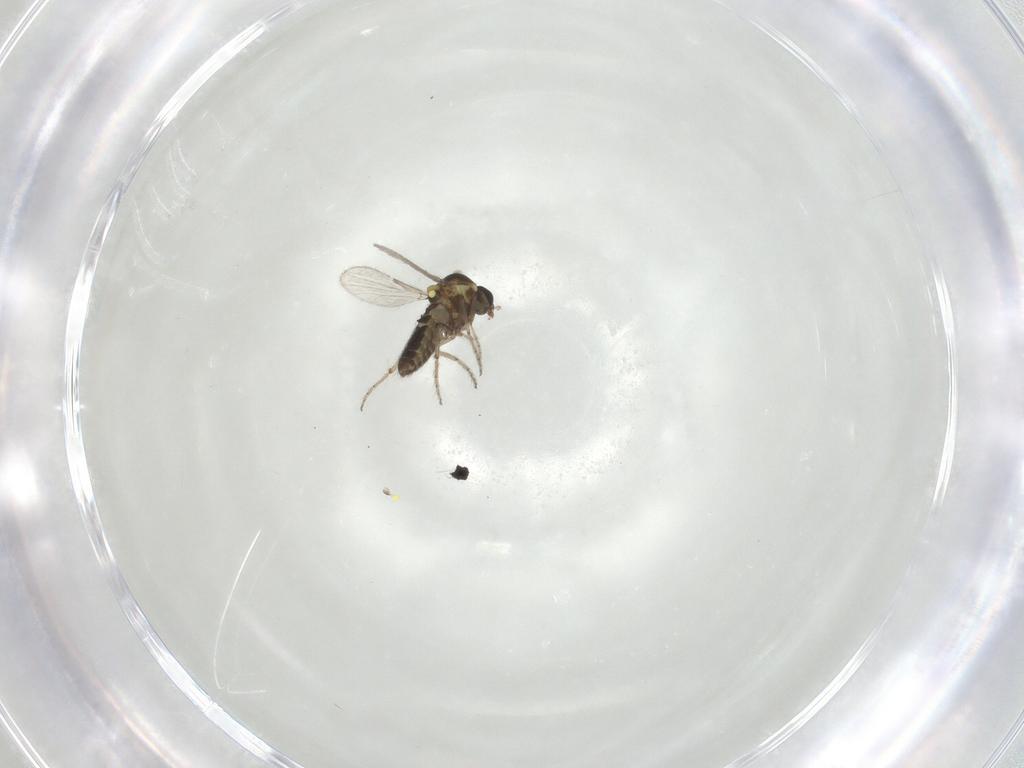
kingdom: Animalia
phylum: Arthropoda
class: Insecta
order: Diptera
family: Ceratopogonidae
